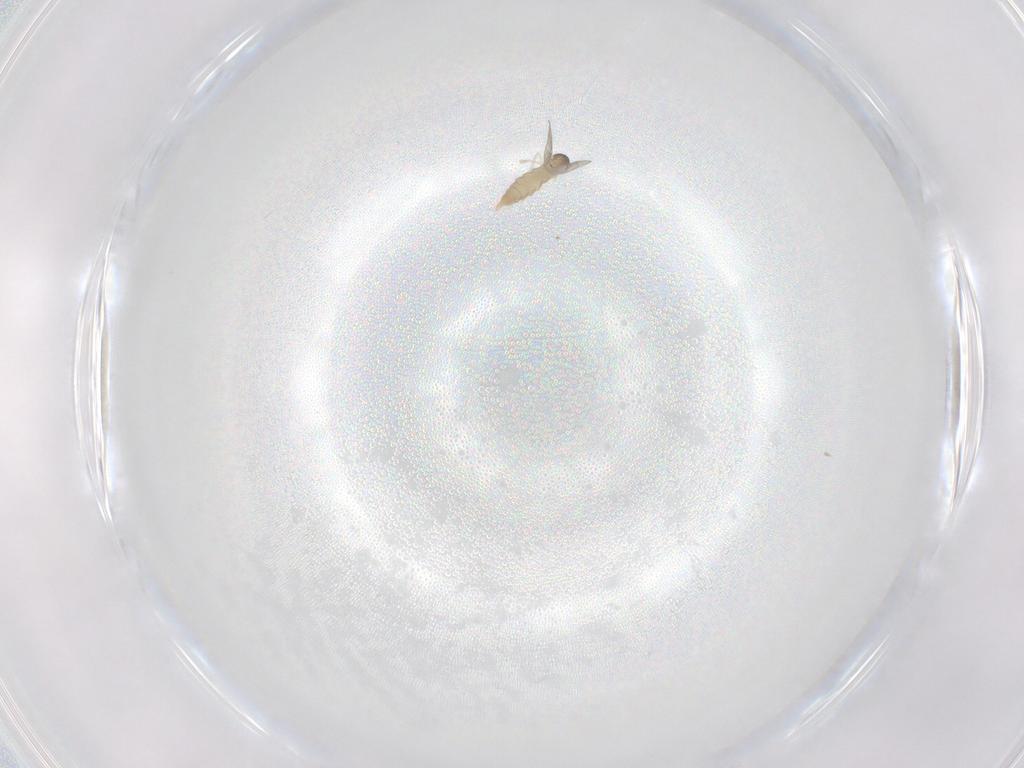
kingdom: Animalia
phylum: Arthropoda
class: Insecta
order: Diptera
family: Cecidomyiidae
